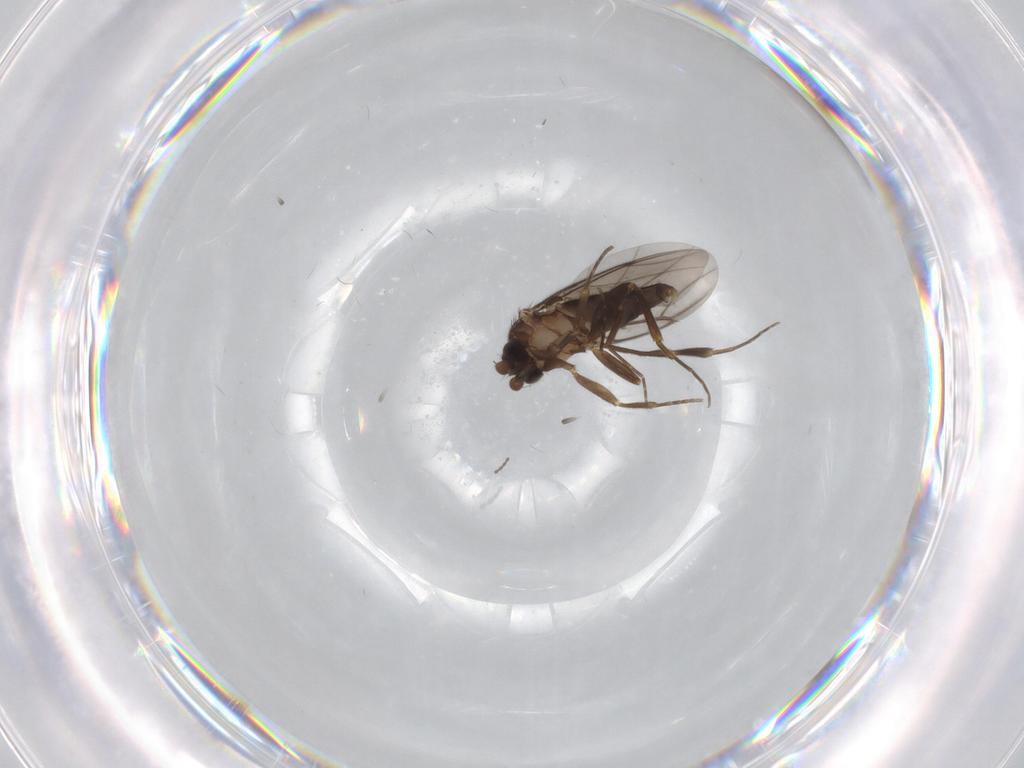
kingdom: Animalia
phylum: Arthropoda
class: Insecta
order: Diptera
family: Cecidomyiidae
